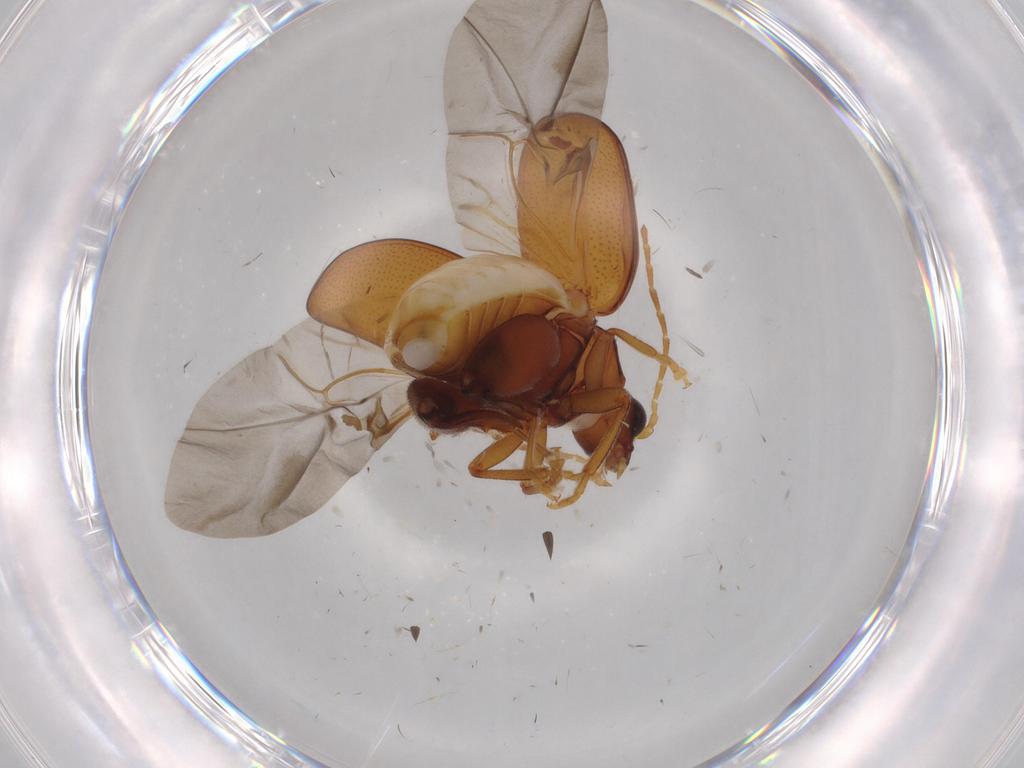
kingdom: Animalia
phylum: Arthropoda
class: Insecta
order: Coleoptera
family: Chrysomelidae
